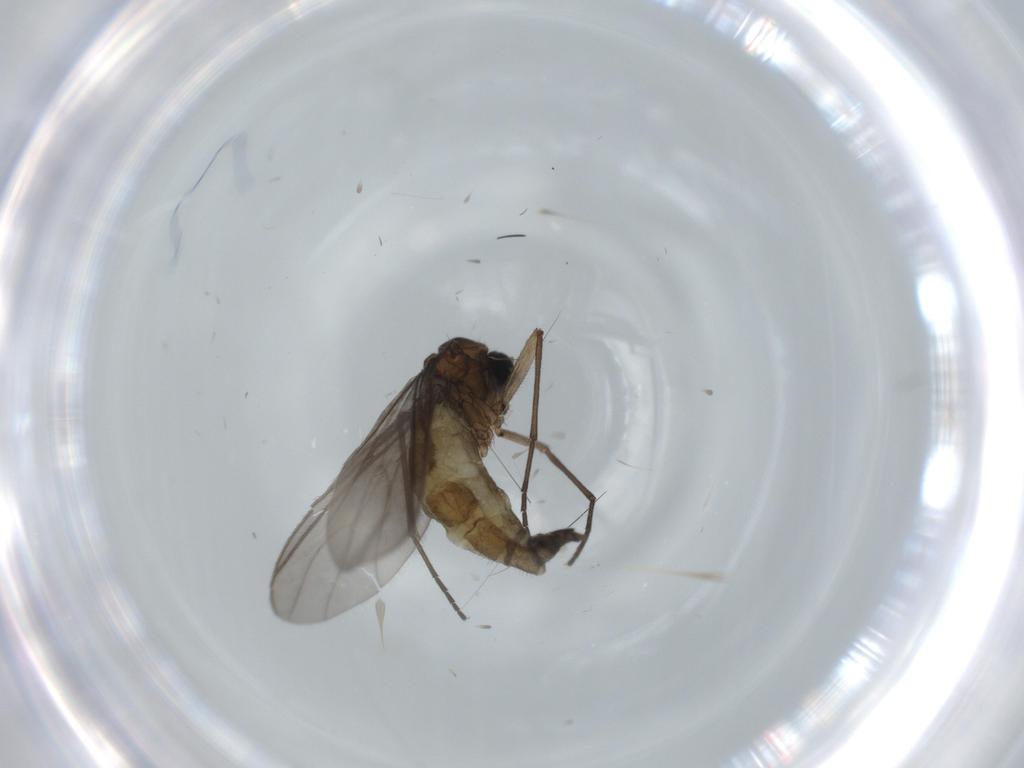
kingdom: Animalia
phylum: Arthropoda
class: Insecta
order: Diptera
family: Sciaridae
